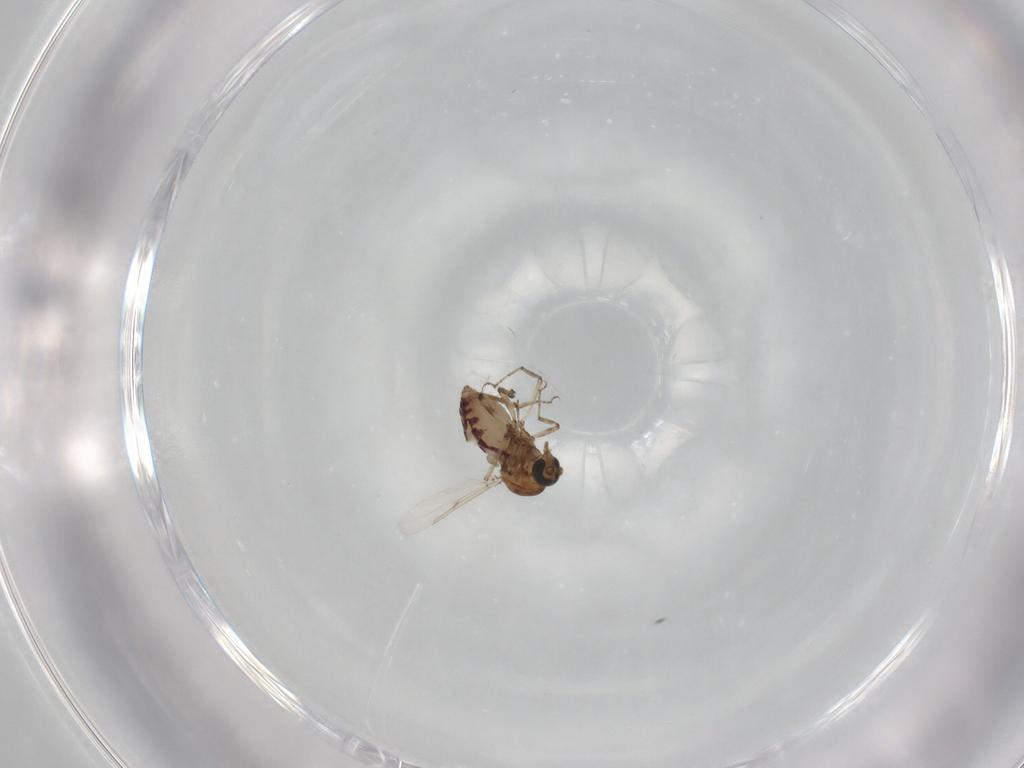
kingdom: Animalia
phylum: Arthropoda
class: Insecta
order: Diptera
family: Ceratopogonidae
